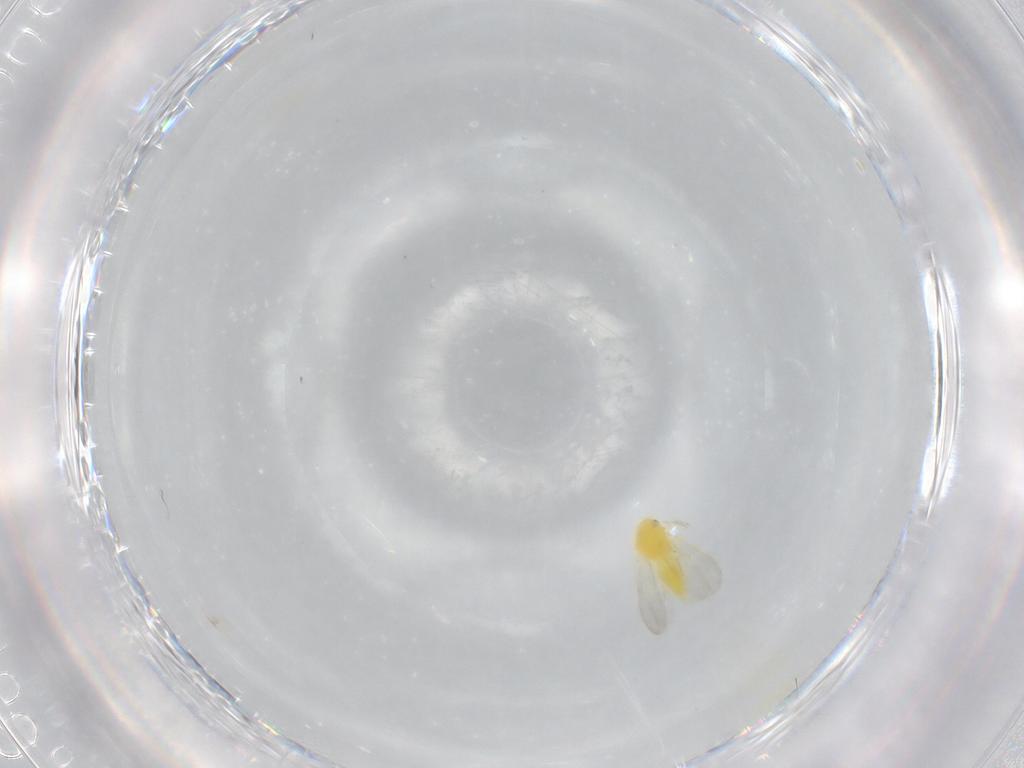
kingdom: Animalia
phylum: Arthropoda
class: Insecta
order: Hemiptera
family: Aleyrodidae
